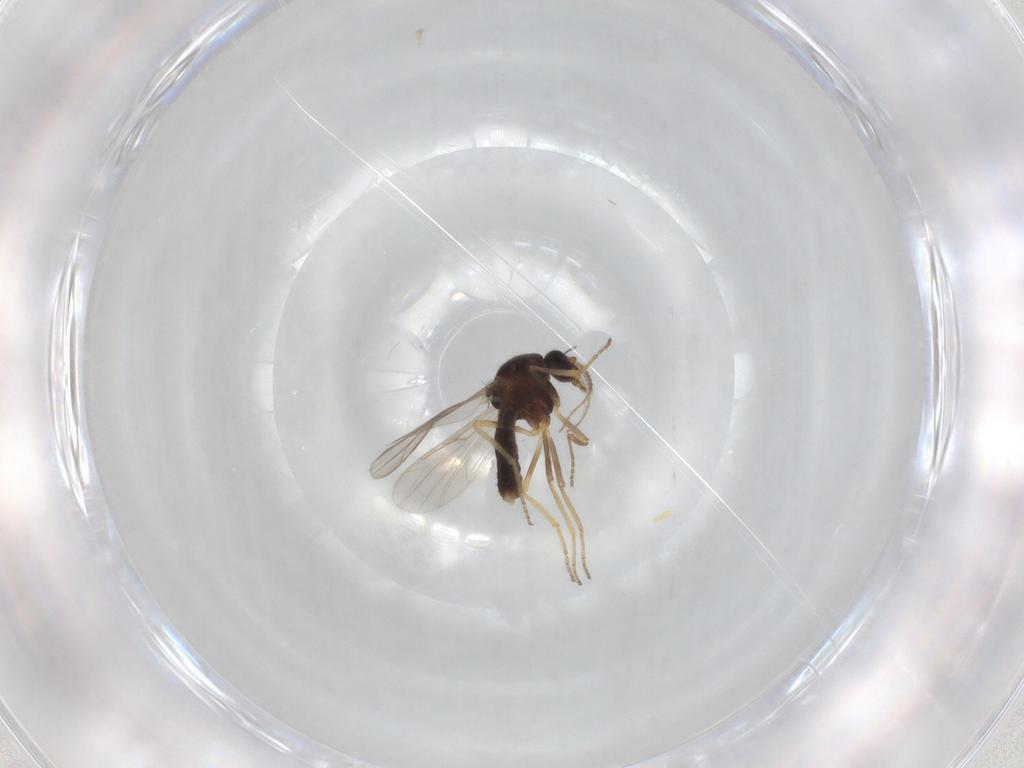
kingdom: Animalia
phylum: Arthropoda
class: Insecta
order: Diptera
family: Ceratopogonidae
